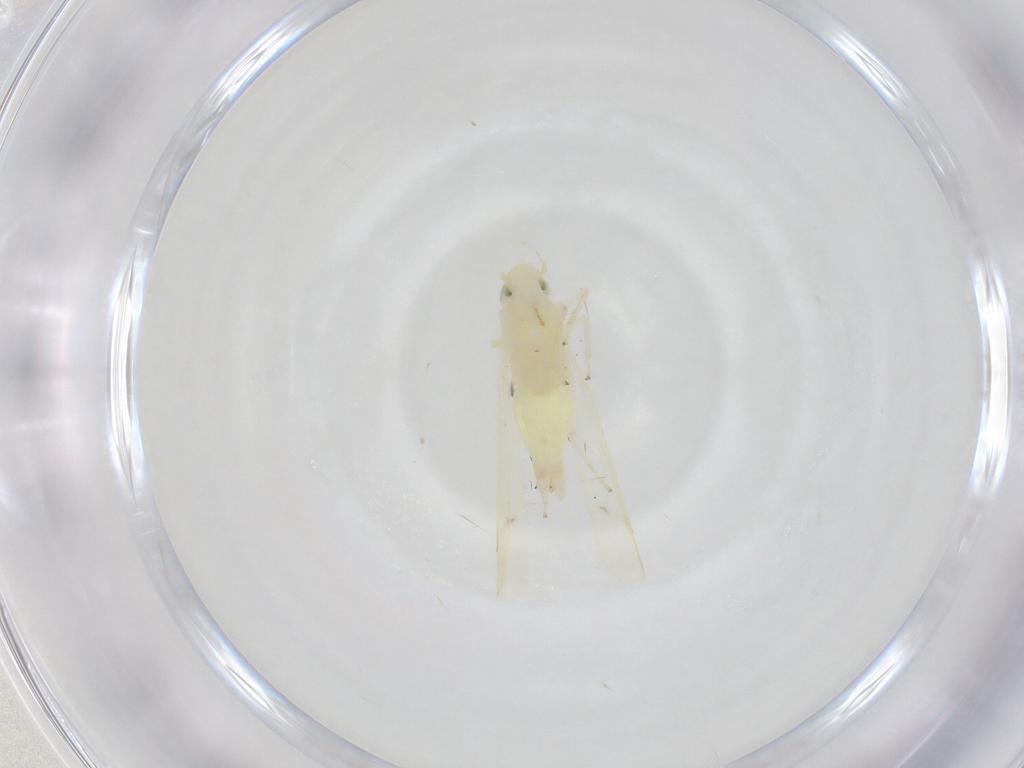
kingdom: Animalia
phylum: Arthropoda
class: Insecta
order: Hemiptera
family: Cicadellidae
